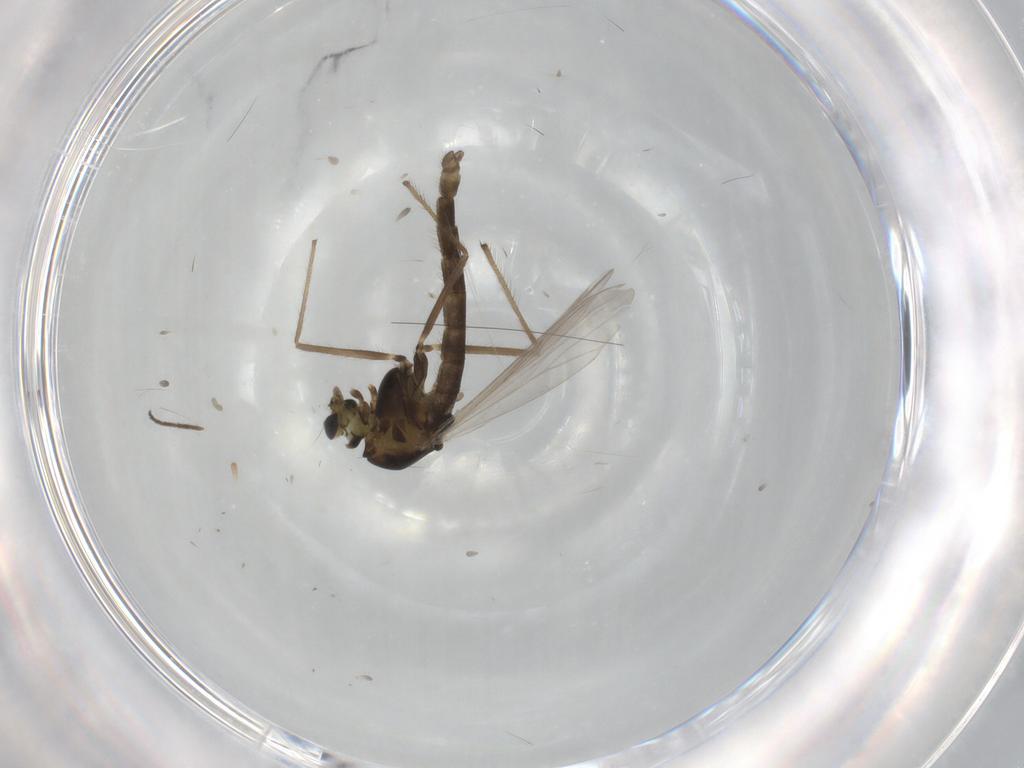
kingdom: Animalia
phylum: Arthropoda
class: Insecta
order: Diptera
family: Chironomidae
